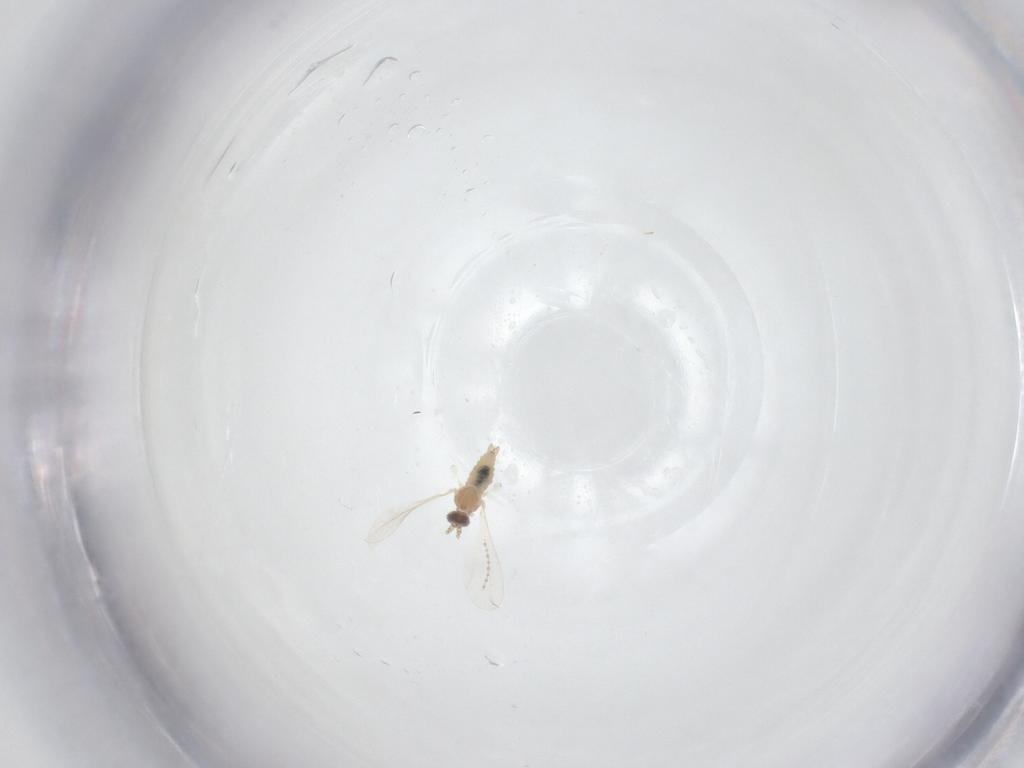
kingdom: Animalia
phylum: Arthropoda
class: Insecta
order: Diptera
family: Cecidomyiidae
